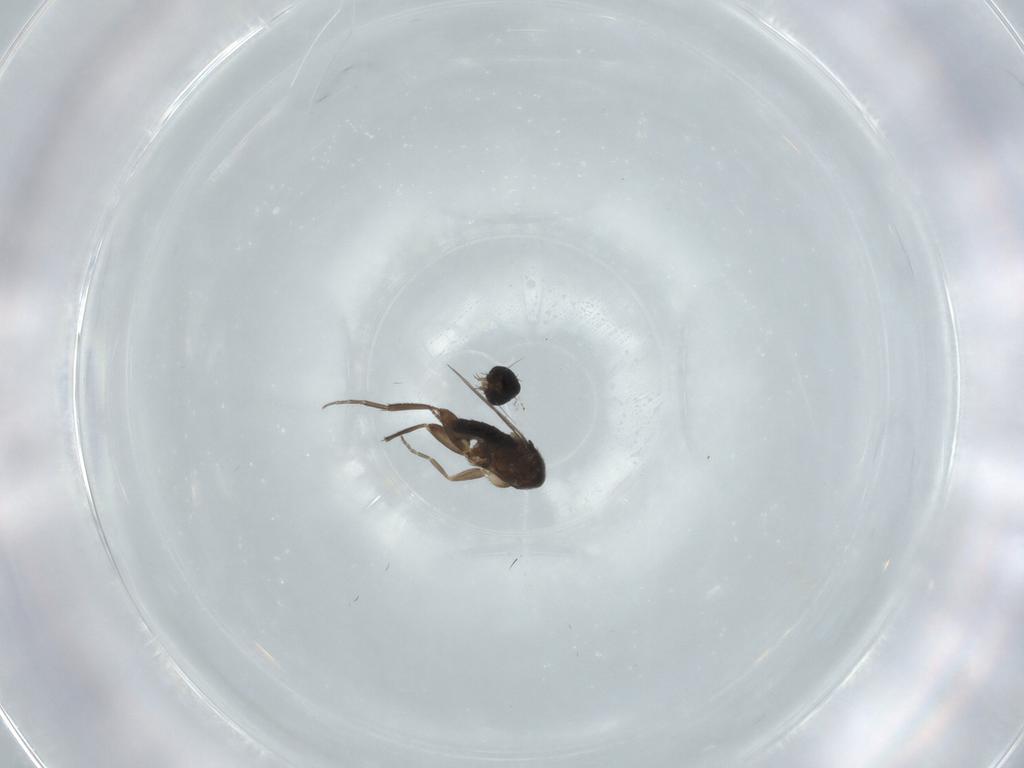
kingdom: Animalia
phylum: Arthropoda
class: Insecta
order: Diptera
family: Phoridae
